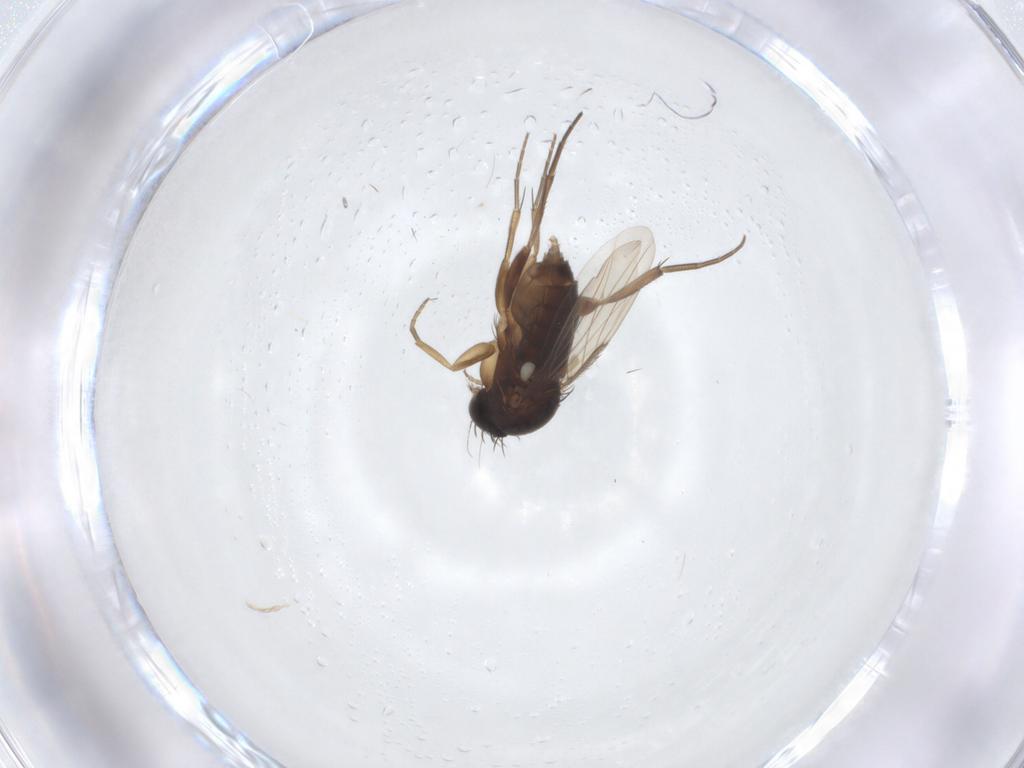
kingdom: Animalia
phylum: Arthropoda
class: Insecta
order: Diptera
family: Phoridae
